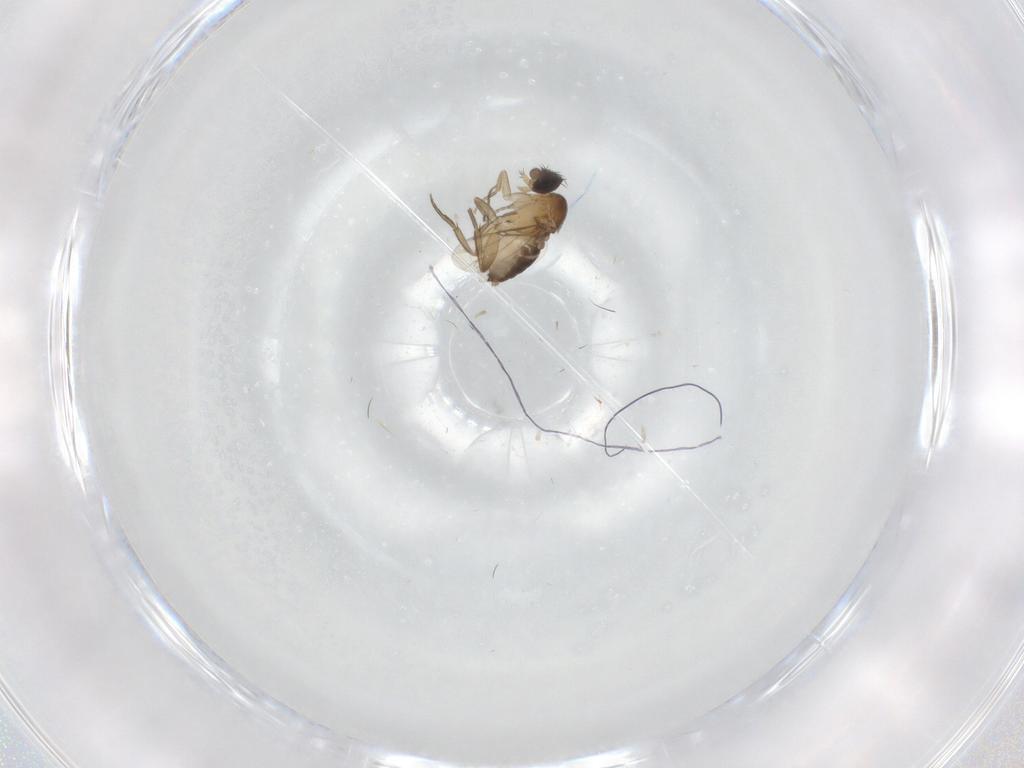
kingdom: Animalia
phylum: Arthropoda
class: Insecta
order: Diptera
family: Phoridae
